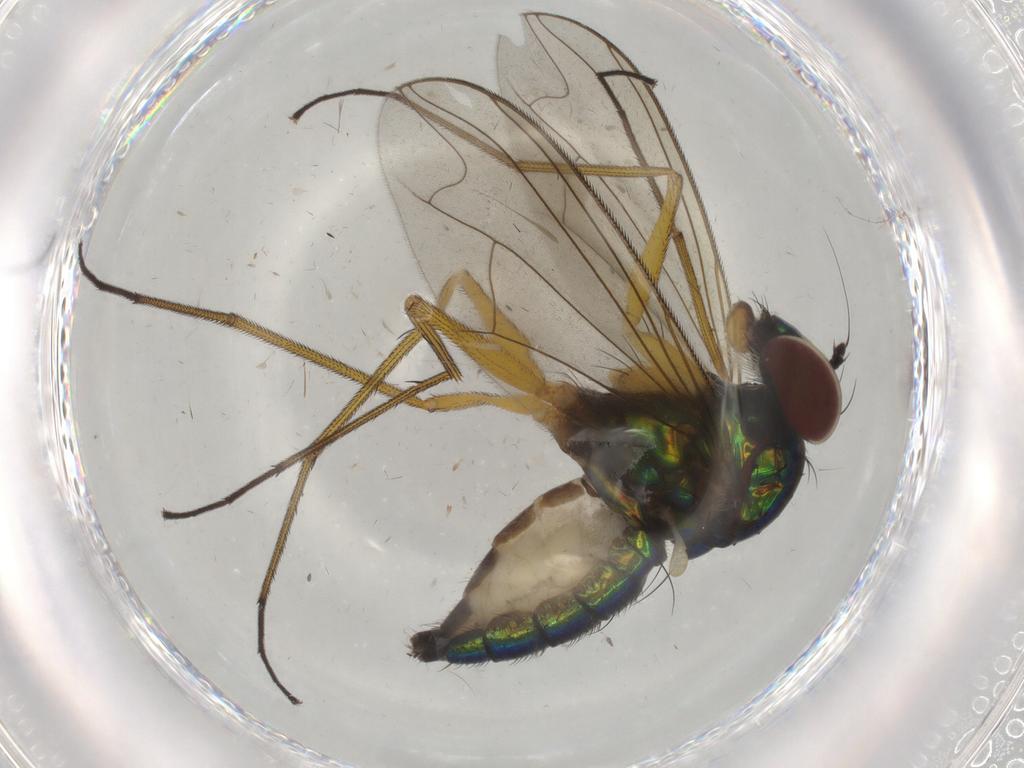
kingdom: Animalia
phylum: Arthropoda
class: Insecta
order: Diptera
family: Dolichopodidae
